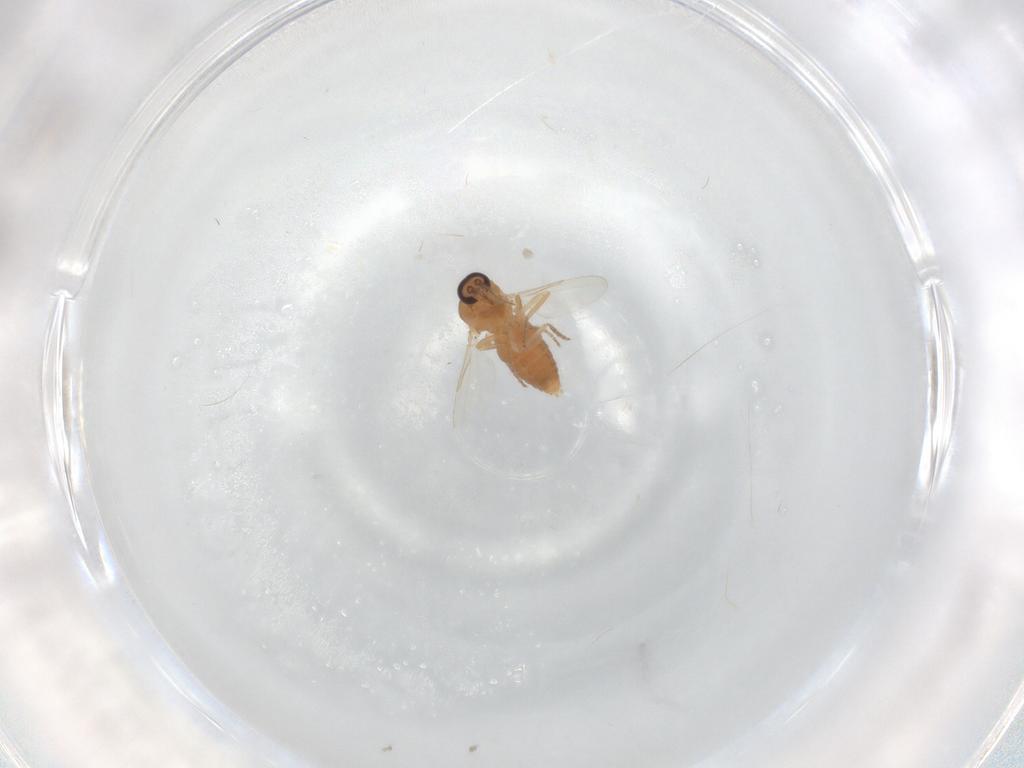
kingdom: Animalia
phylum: Arthropoda
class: Insecta
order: Diptera
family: Ceratopogonidae
